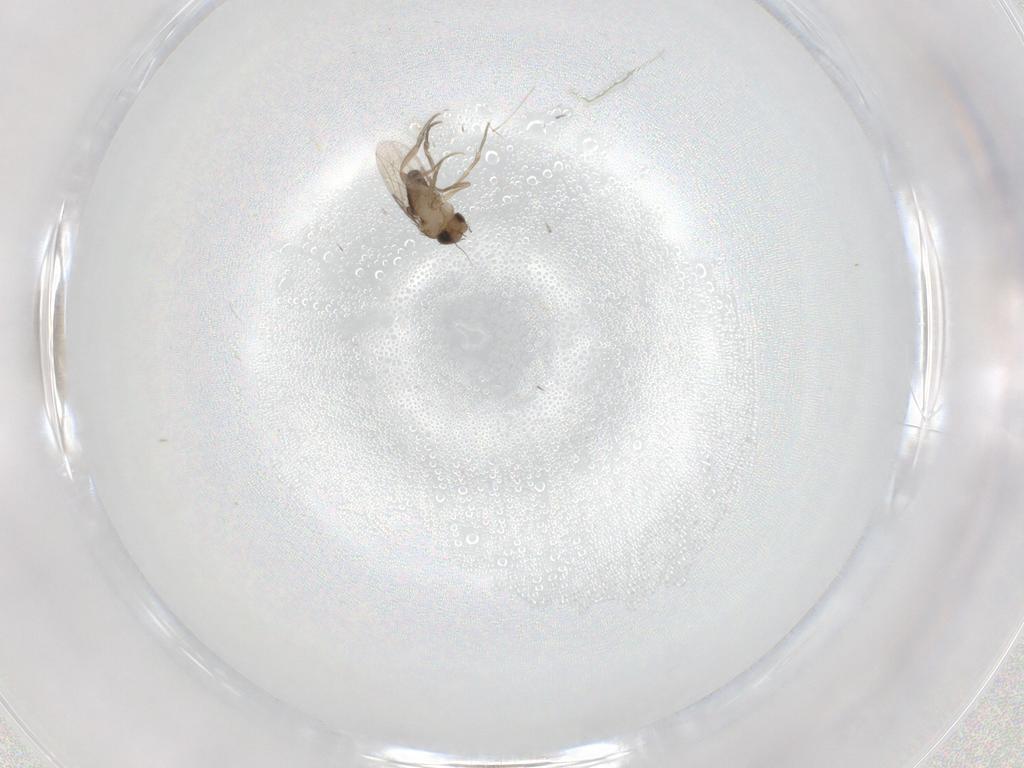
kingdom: Animalia
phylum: Arthropoda
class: Insecta
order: Diptera
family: Phoridae
